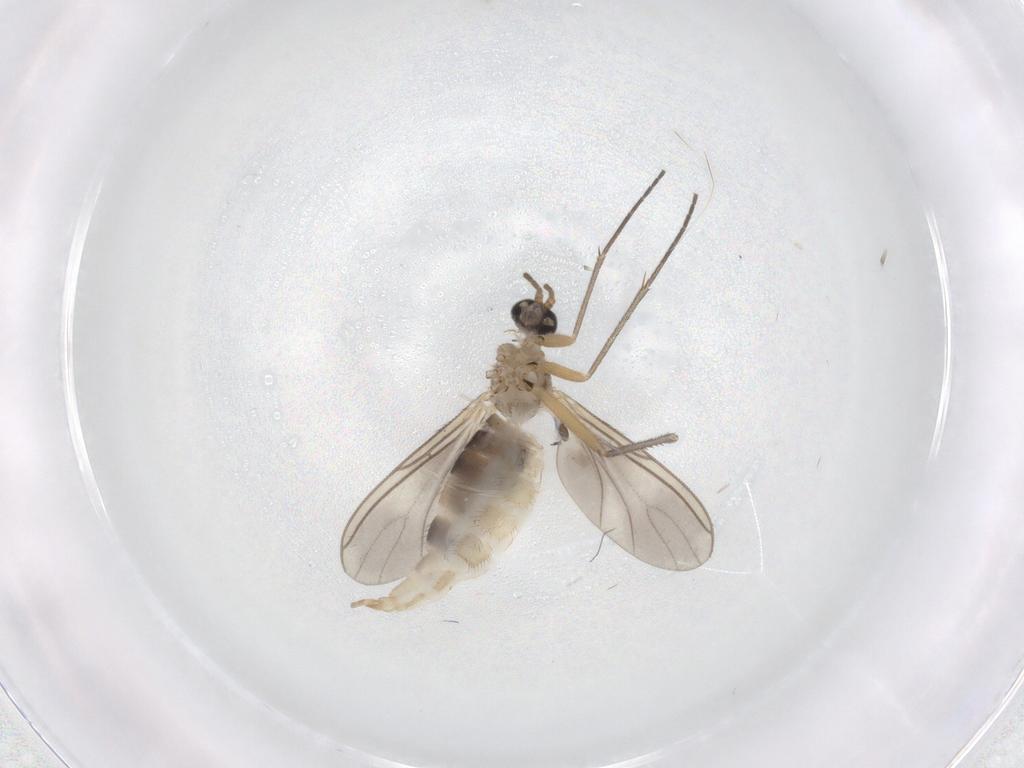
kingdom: Animalia
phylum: Arthropoda
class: Insecta
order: Diptera
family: Sciaridae
